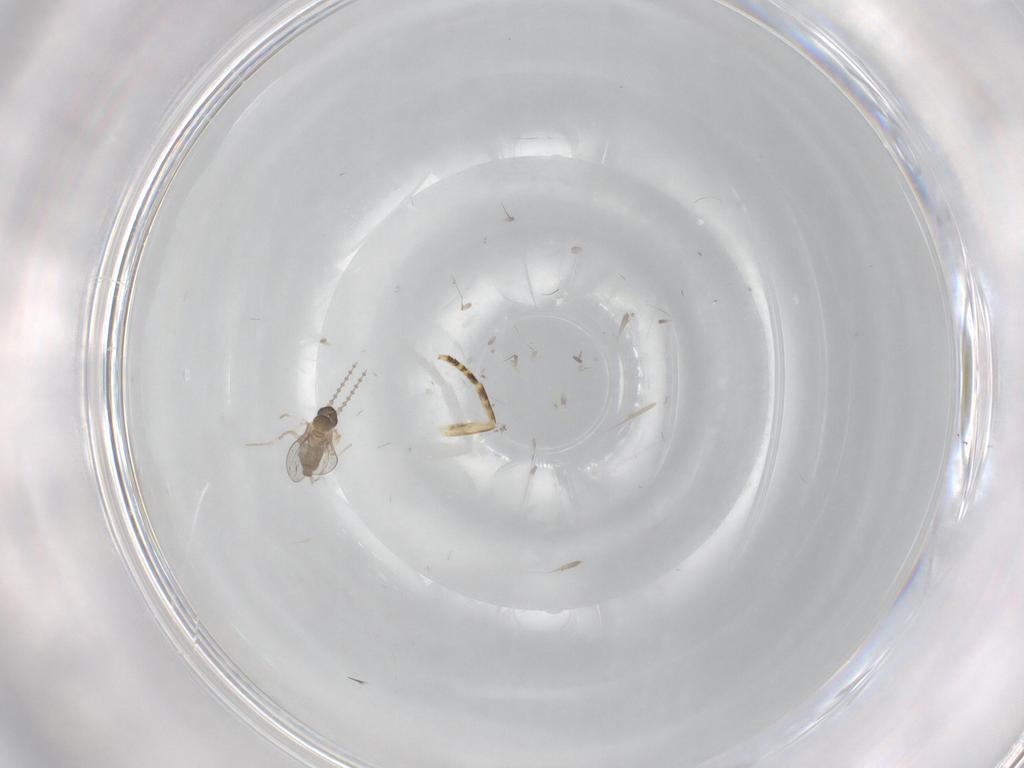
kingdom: Animalia
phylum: Arthropoda
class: Insecta
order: Diptera
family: Cecidomyiidae
